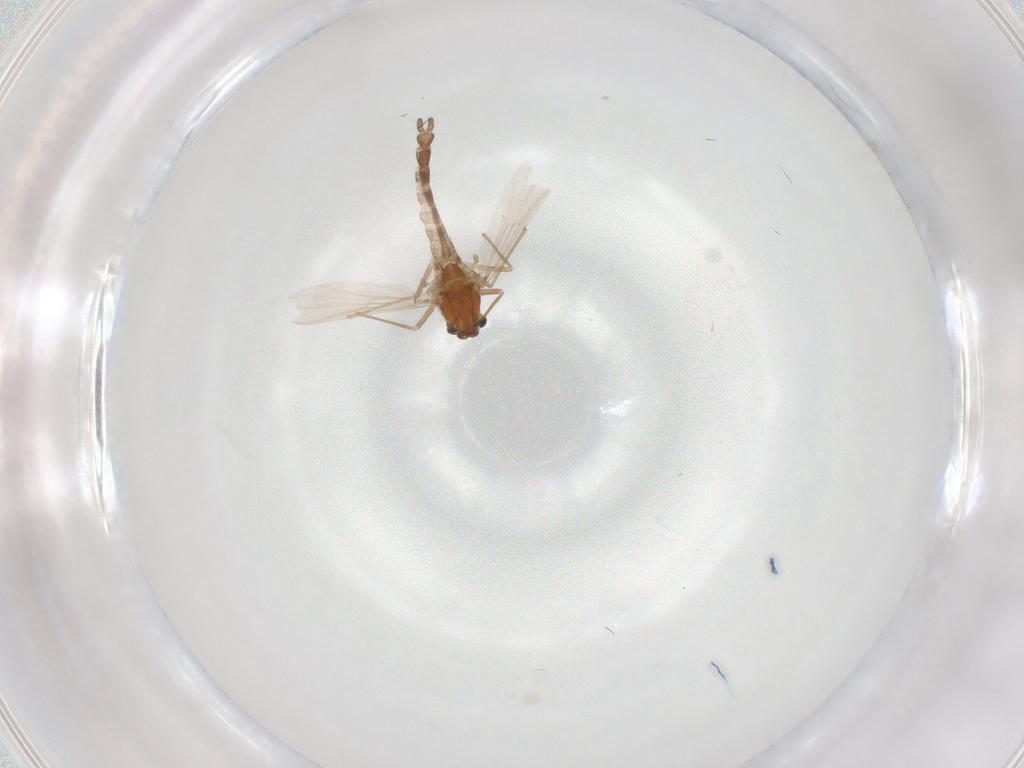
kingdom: Animalia
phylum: Arthropoda
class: Insecta
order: Diptera
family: Chironomidae
